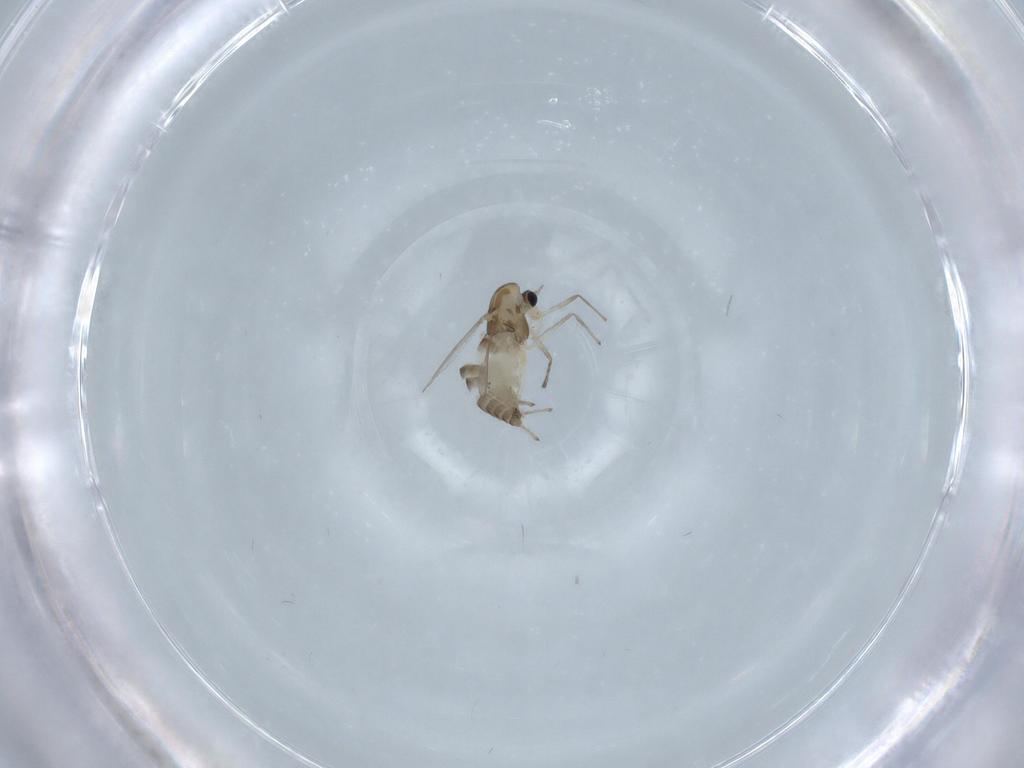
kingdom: Animalia
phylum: Arthropoda
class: Insecta
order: Diptera
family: Chironomidae
